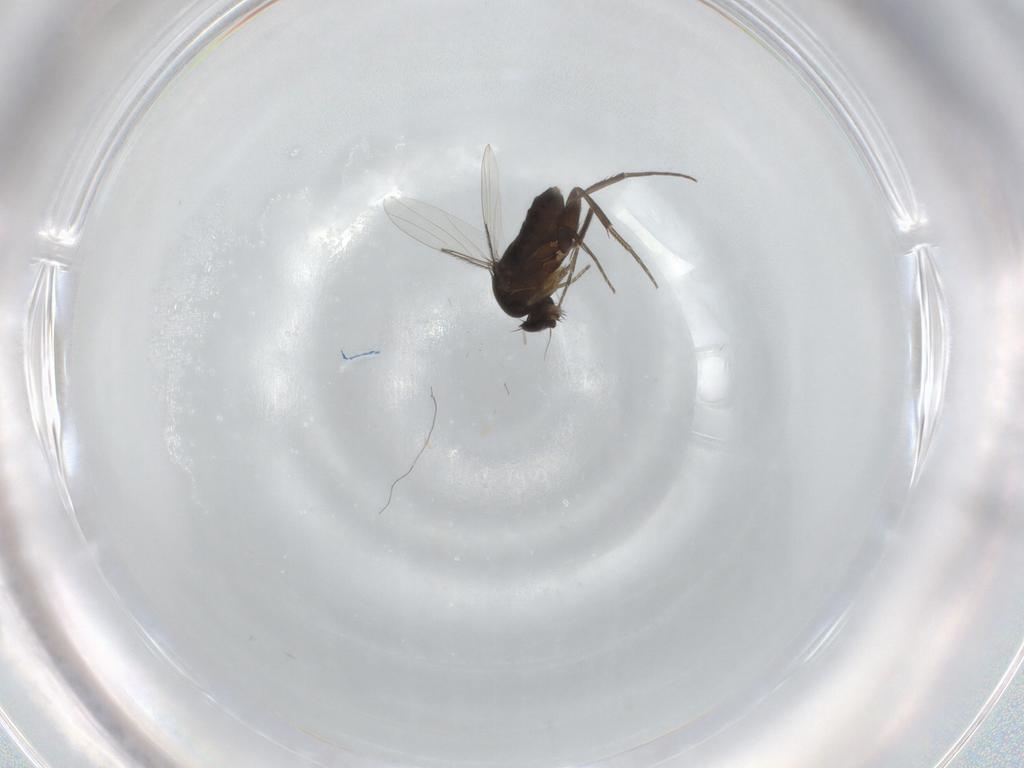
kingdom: Animalia
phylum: Arthropoda
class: Insecta
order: Diptera
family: Phoridae
